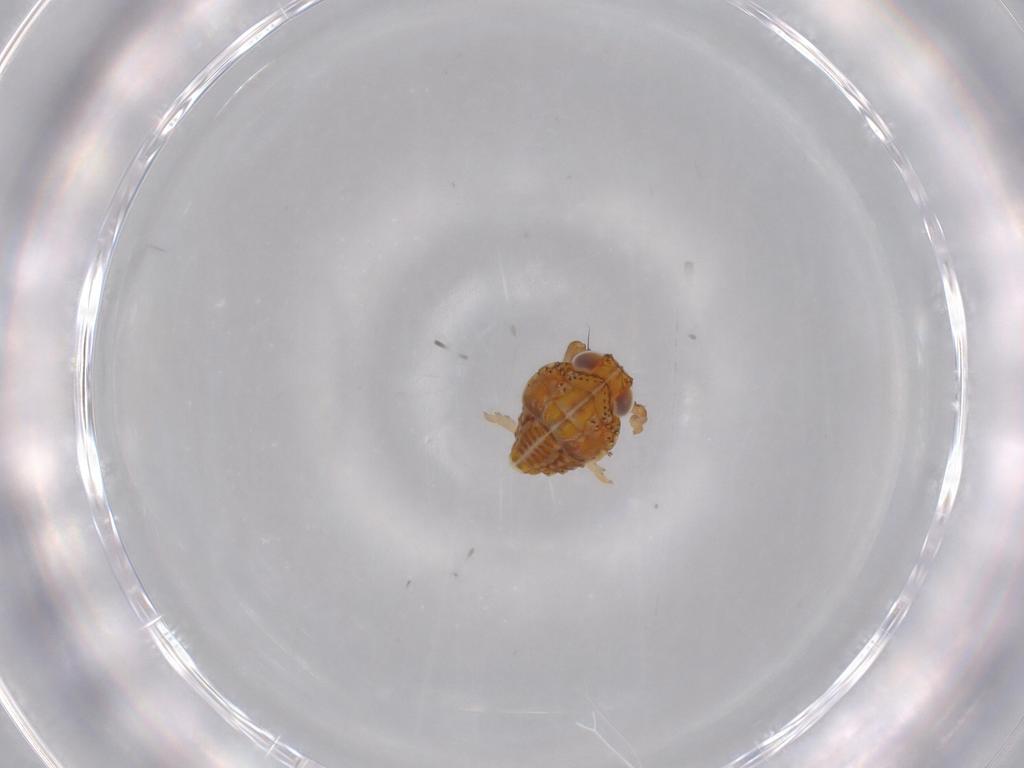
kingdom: Animalia
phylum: Arthropoda
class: Insecta
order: Hemiptera
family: Issidae
